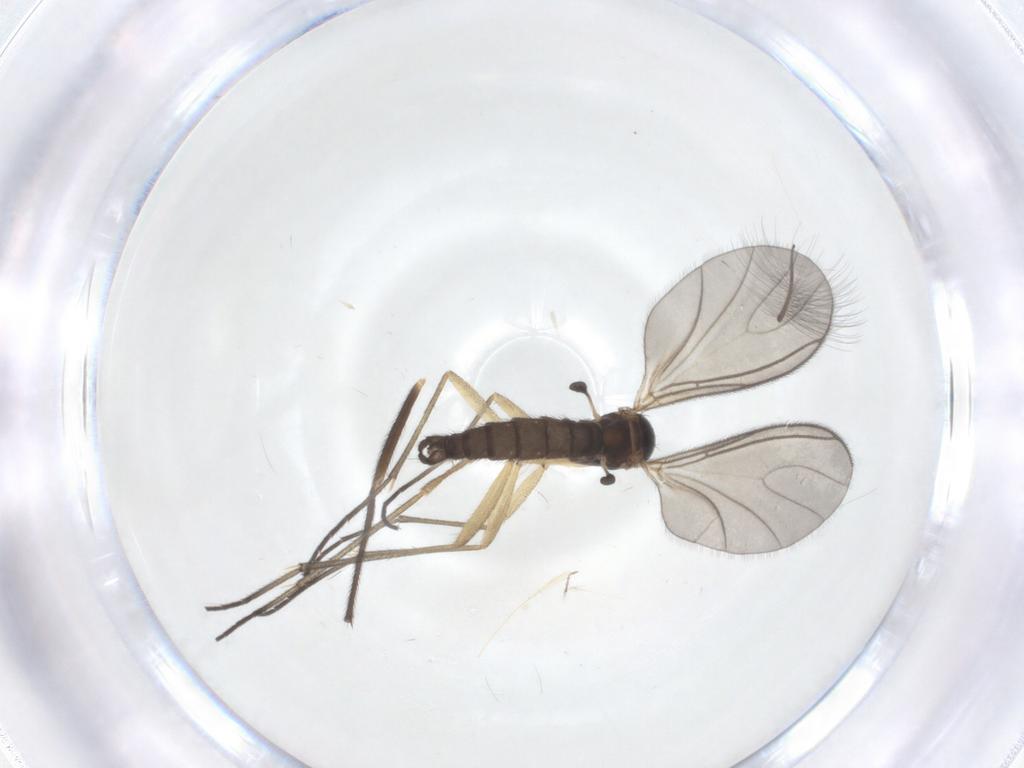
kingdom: Animalia
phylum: Arthropoda
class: Insecta
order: Diptera
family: Sciaridae
